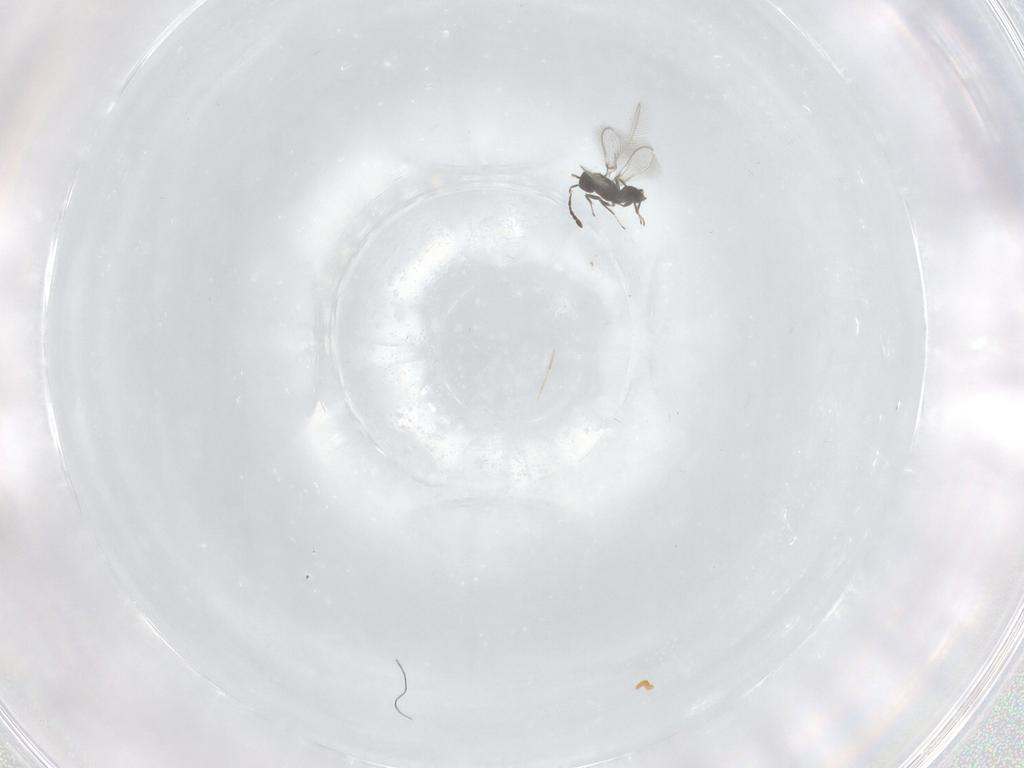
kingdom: Animalia
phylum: Arthropoda
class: Insecta
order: Hymenoptera
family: Mymaridae
